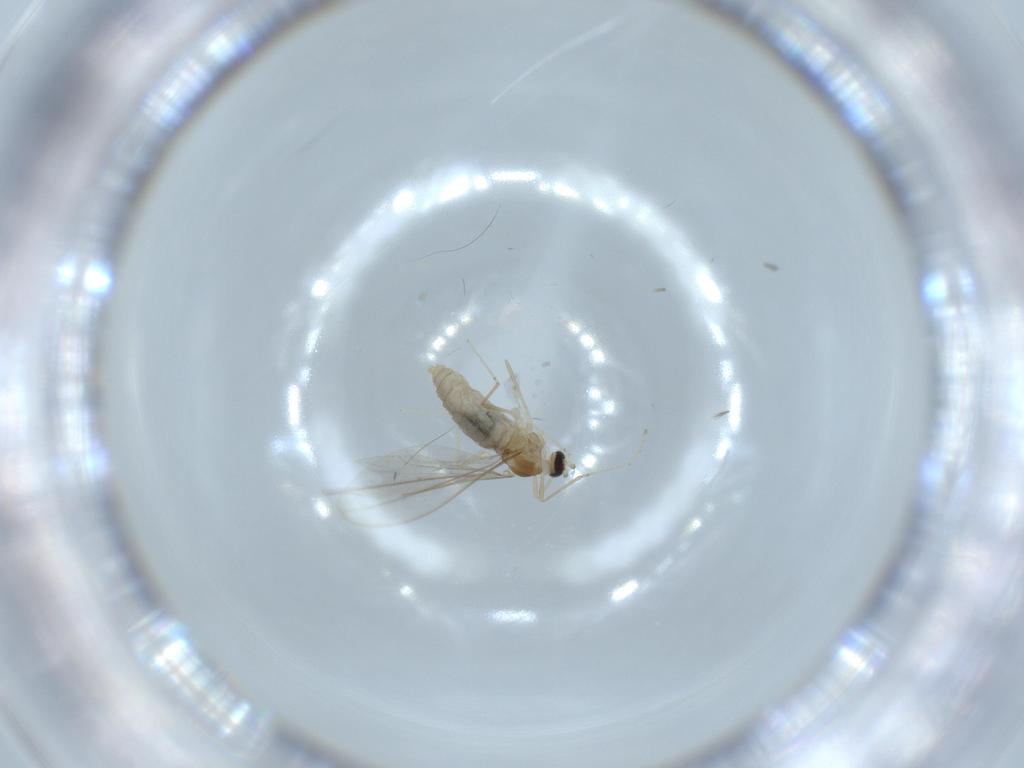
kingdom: Animalia
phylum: Arthropoda
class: Insecta
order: Diptera
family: Cecidomyiidae
